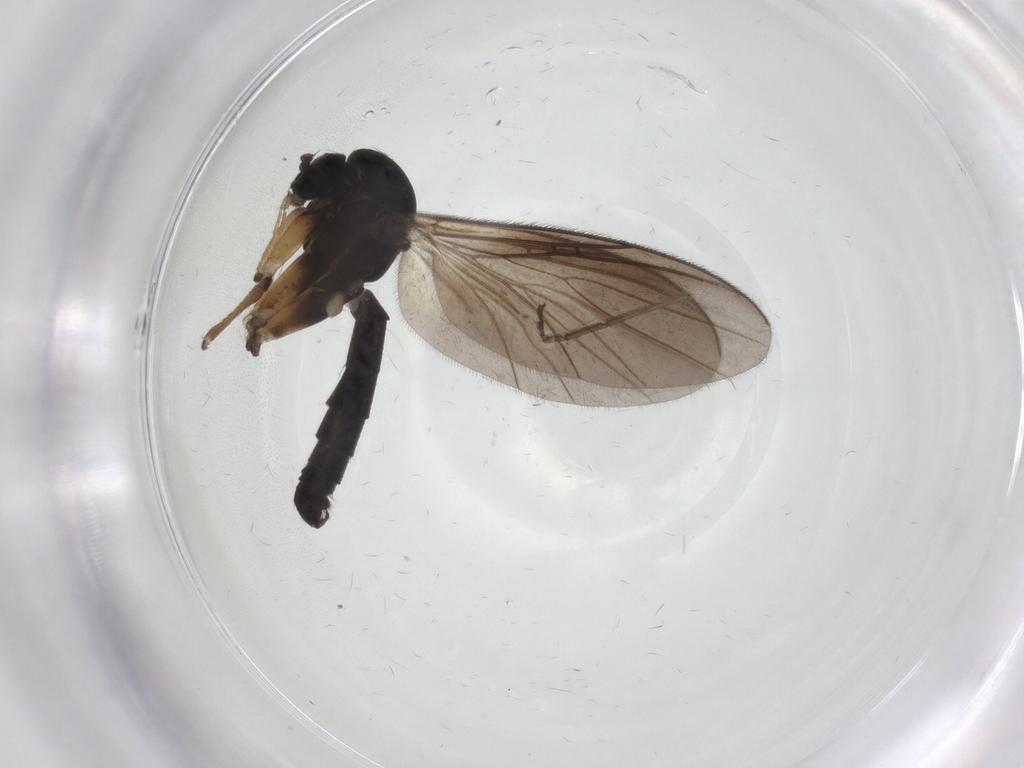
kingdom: Animalia
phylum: Arthropoda
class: Insecta
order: Diptera
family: Mycetophilidae
